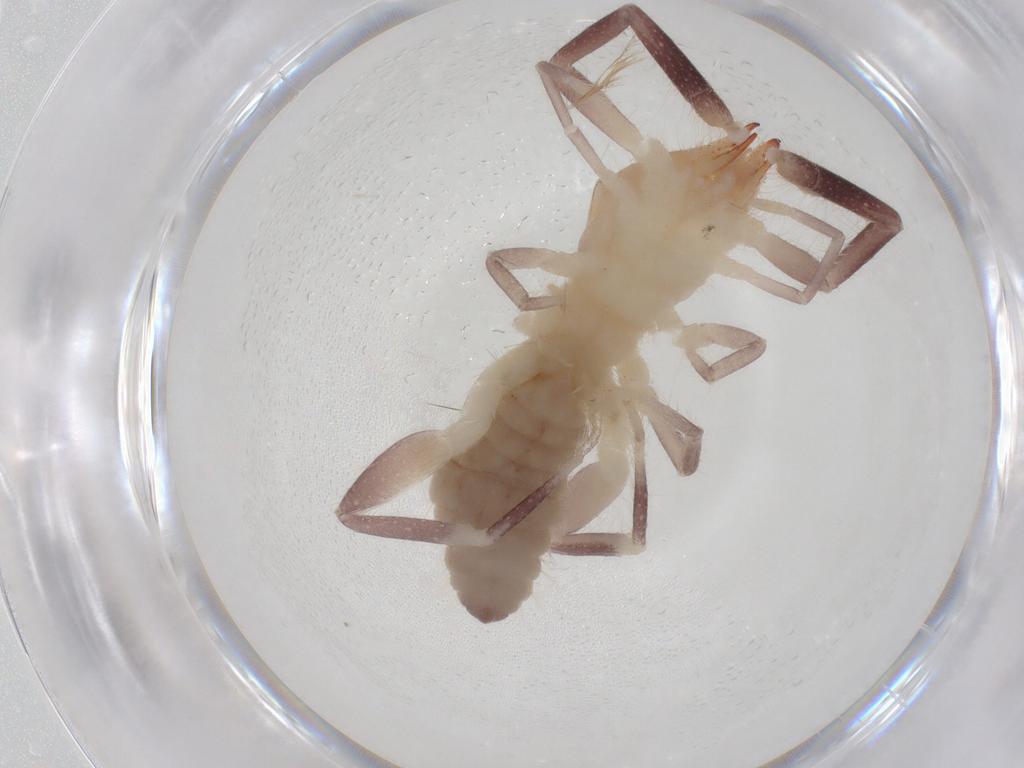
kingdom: Animalia
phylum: Arthropoda
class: Arachnida
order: Solifugae
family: Ammotrechidae
